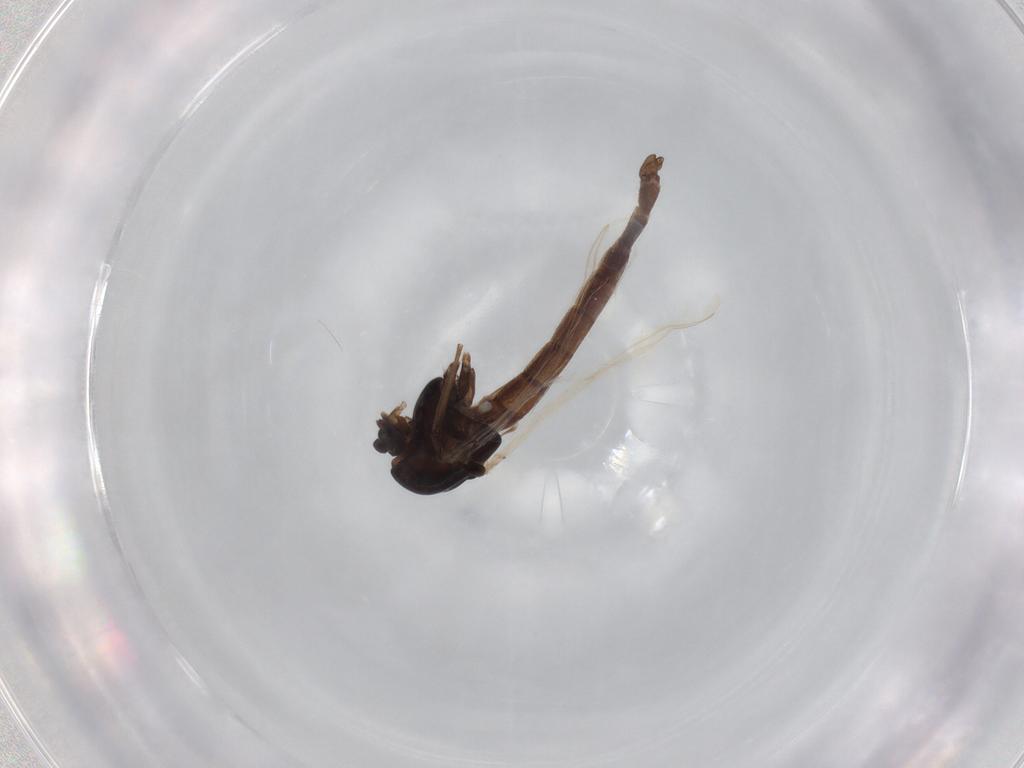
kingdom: Animalia
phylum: Arthropoda
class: Insecta
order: Diptera
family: Chironomidae
